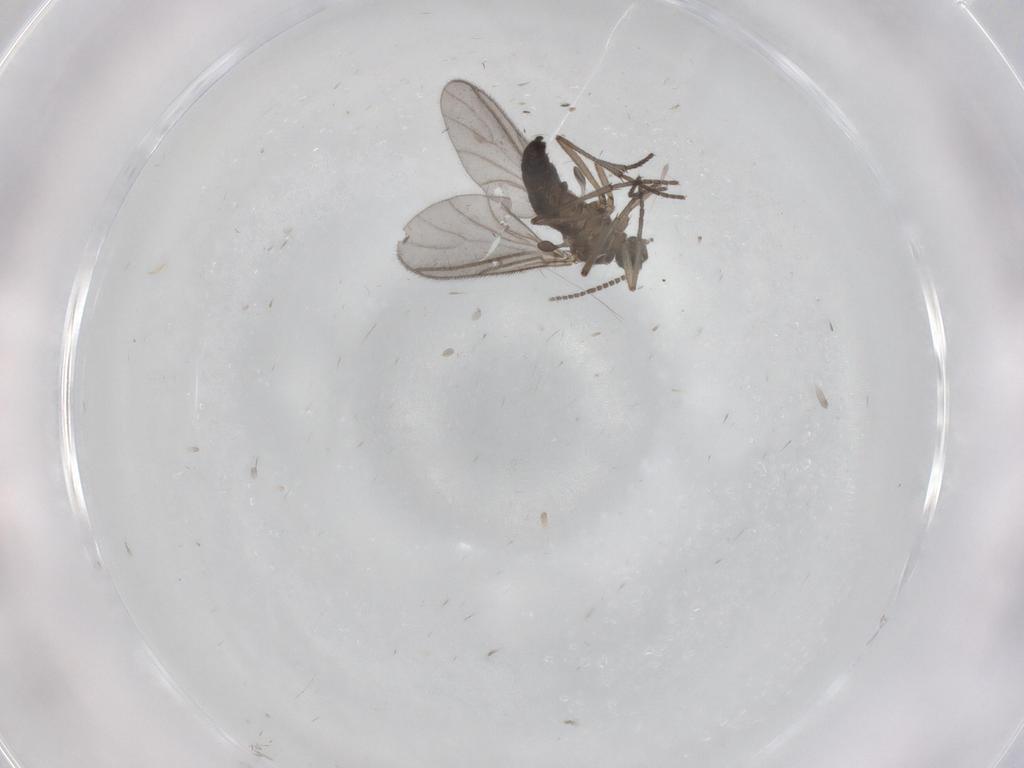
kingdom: Animalia
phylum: Arthropoda
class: Insecta
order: Diptera
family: Sciaridae
